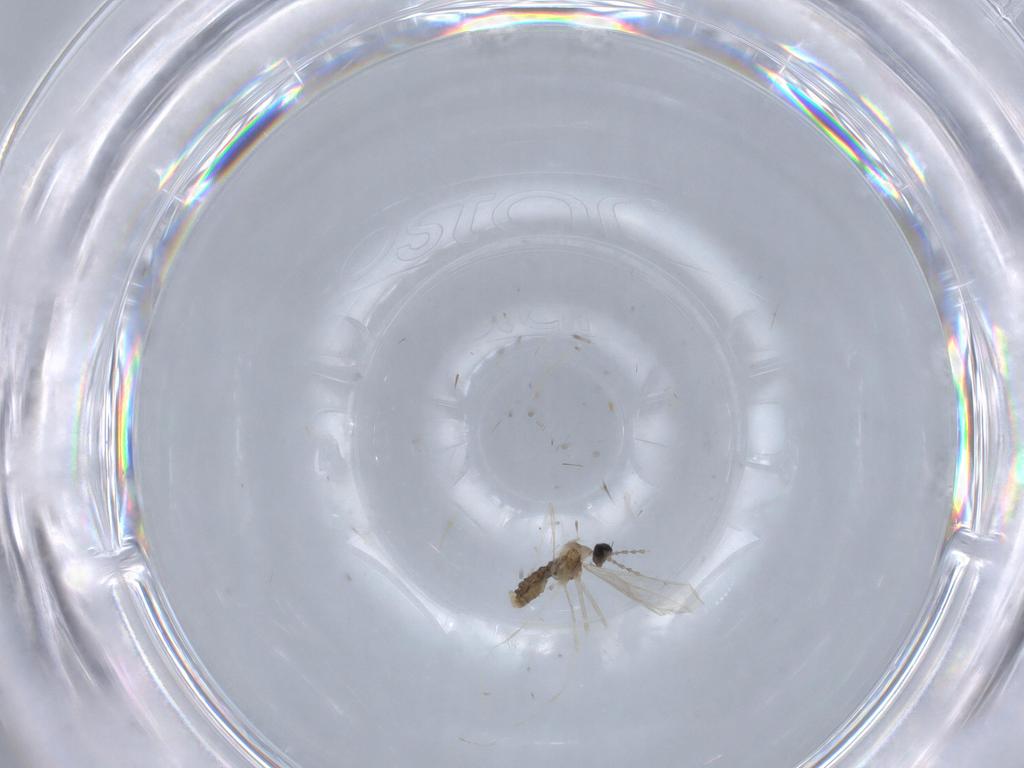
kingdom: Animalia
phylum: Arthropoda
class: Insecta
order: Diptera
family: Cecidomyiidae
